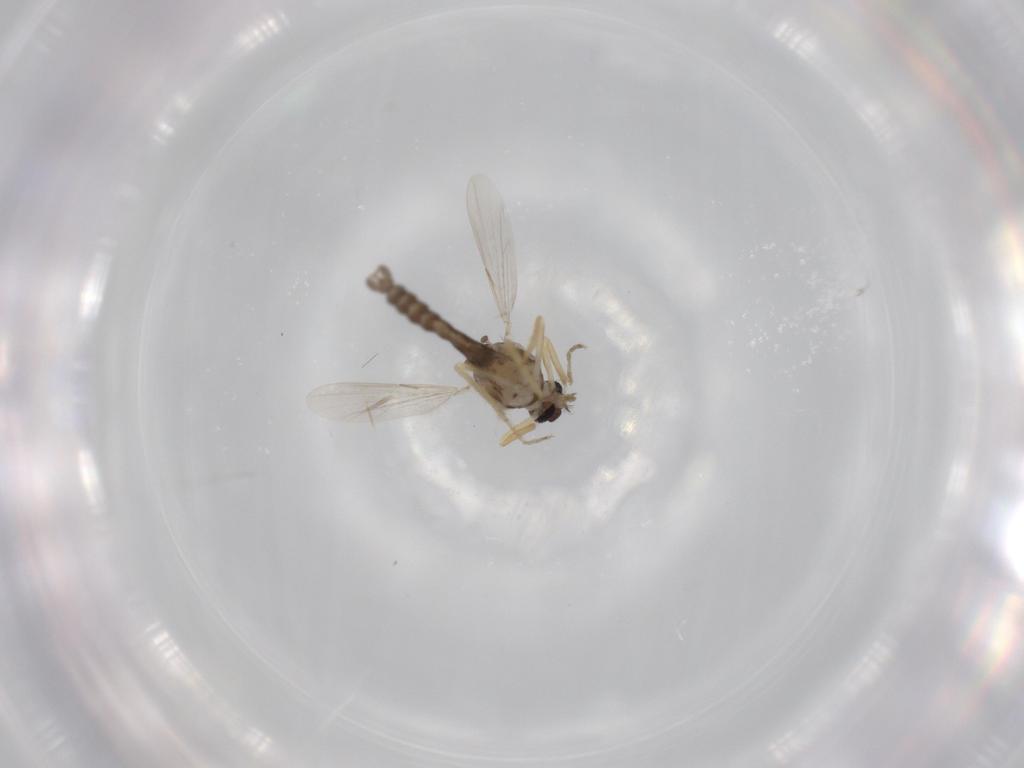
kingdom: Animalia
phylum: Arthropoda
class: Insecta
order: Diptera
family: Ceratopogonidae
